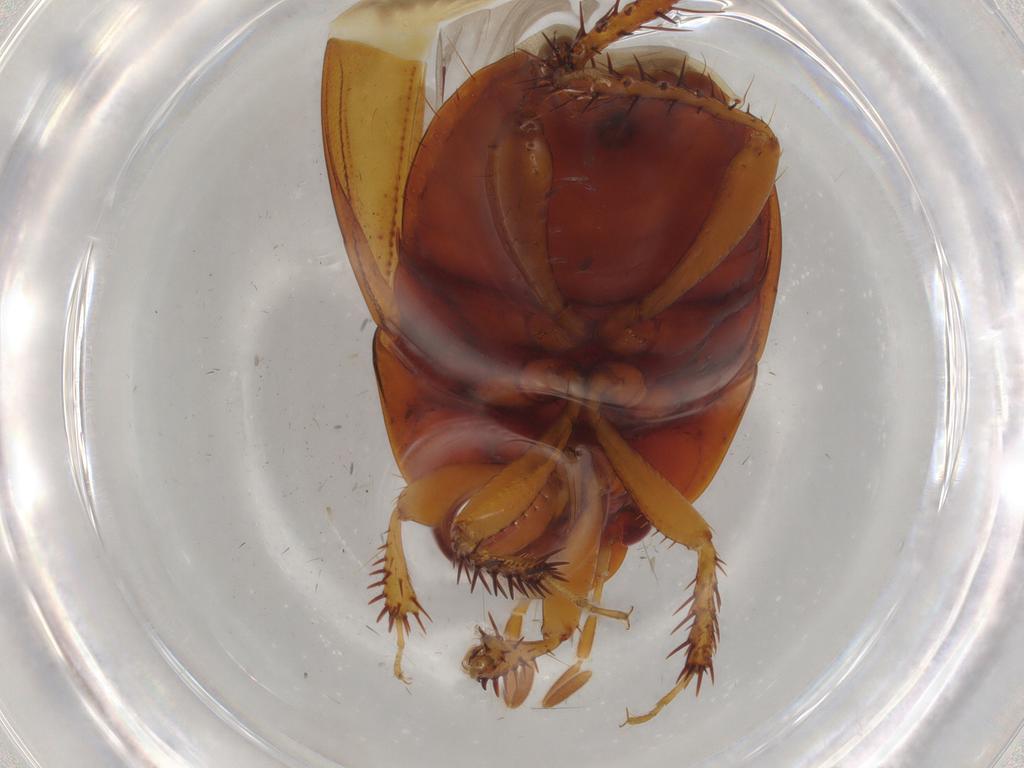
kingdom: Animalia
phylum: Arthropoda
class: Insecta
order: Hemiptera
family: Cydnidae
